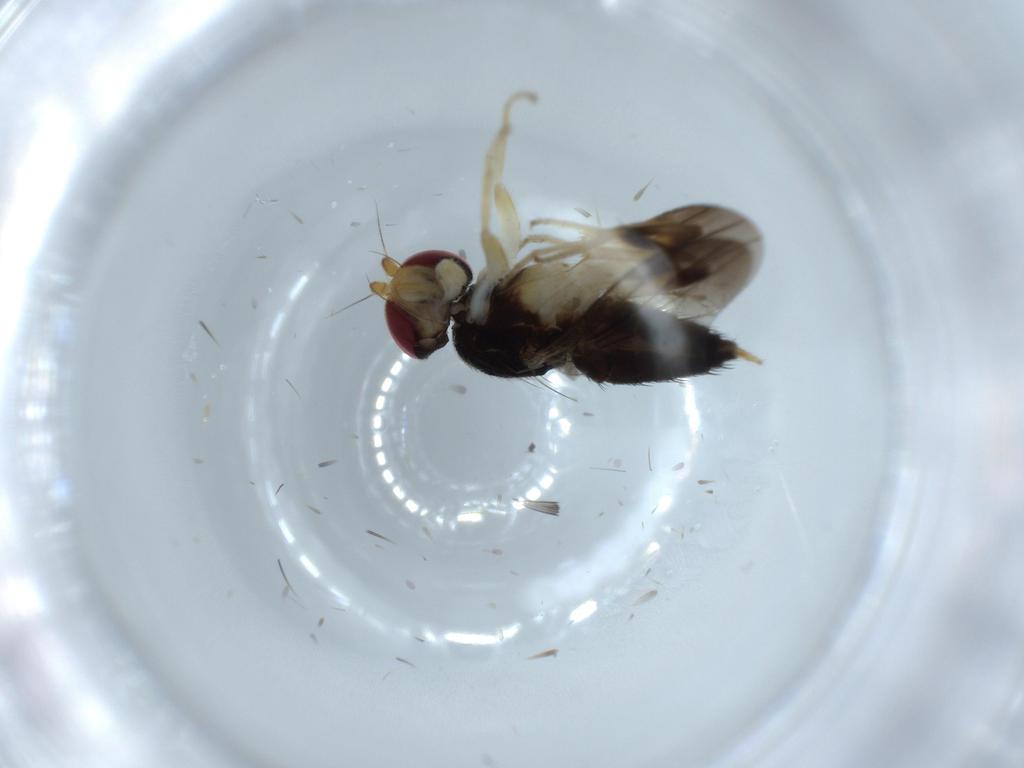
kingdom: Animalia
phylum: Arthropoda
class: Insecta
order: Diptera
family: Clusiidae
